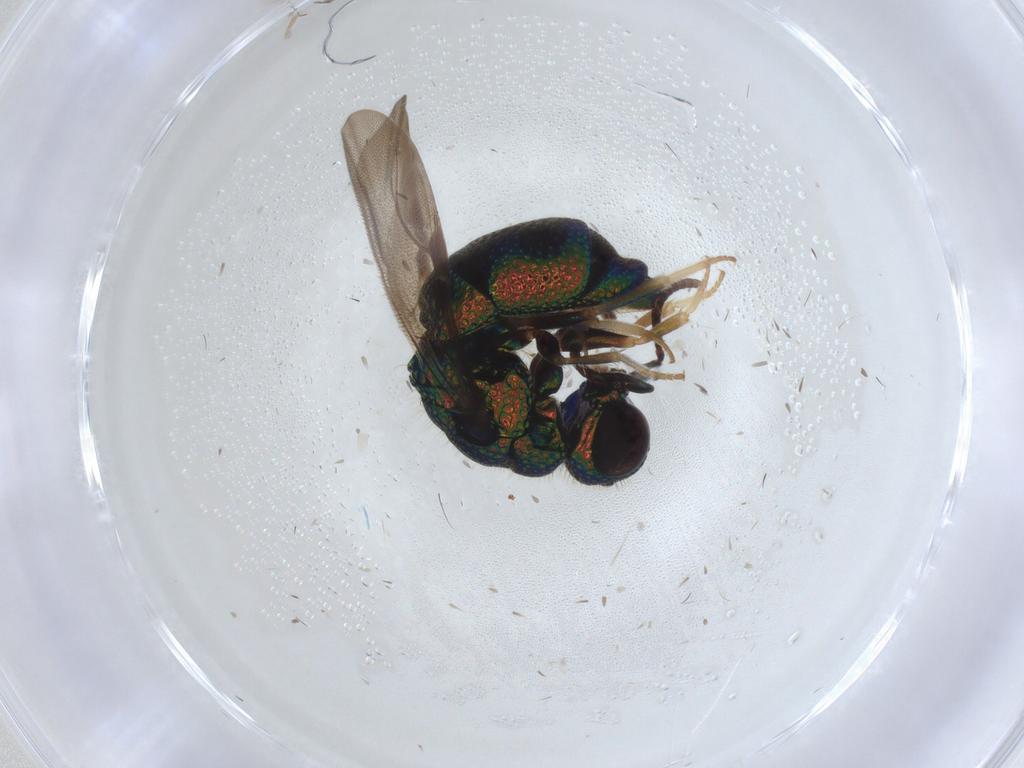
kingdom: Animalia
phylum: Arthropoda
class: Insecta
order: Hymenoptera
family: Chrysididae
